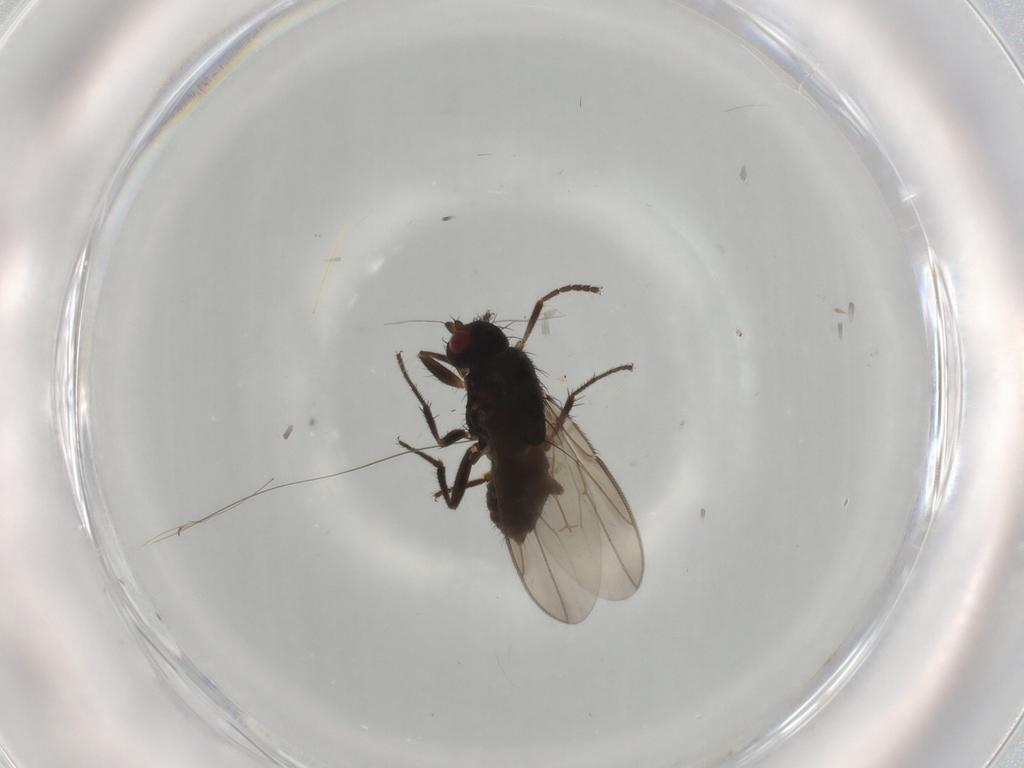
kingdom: Animalia
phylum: Arthropoda
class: Insecta
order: Diptera
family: Sphaeroceridae
